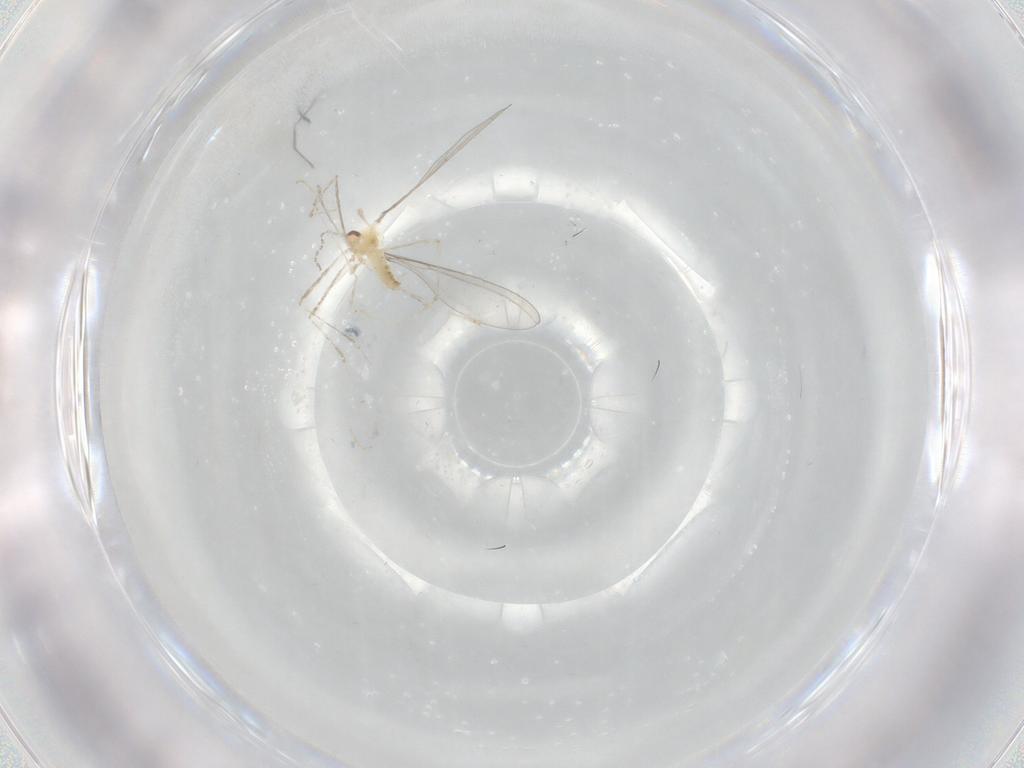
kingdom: Animalia
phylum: Arthropoda
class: Insecta
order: Diptera
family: Cecidomyiidae
